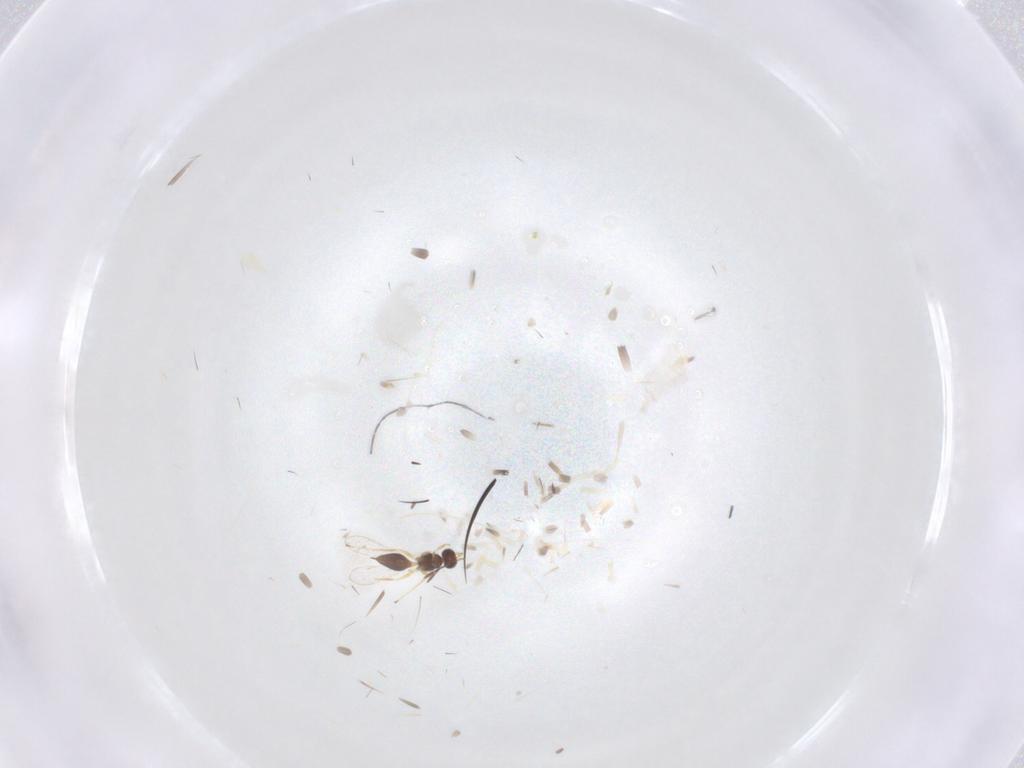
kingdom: Animalia
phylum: Arthropoda
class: Insecta
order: Hymenoptera
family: Mymaridae
